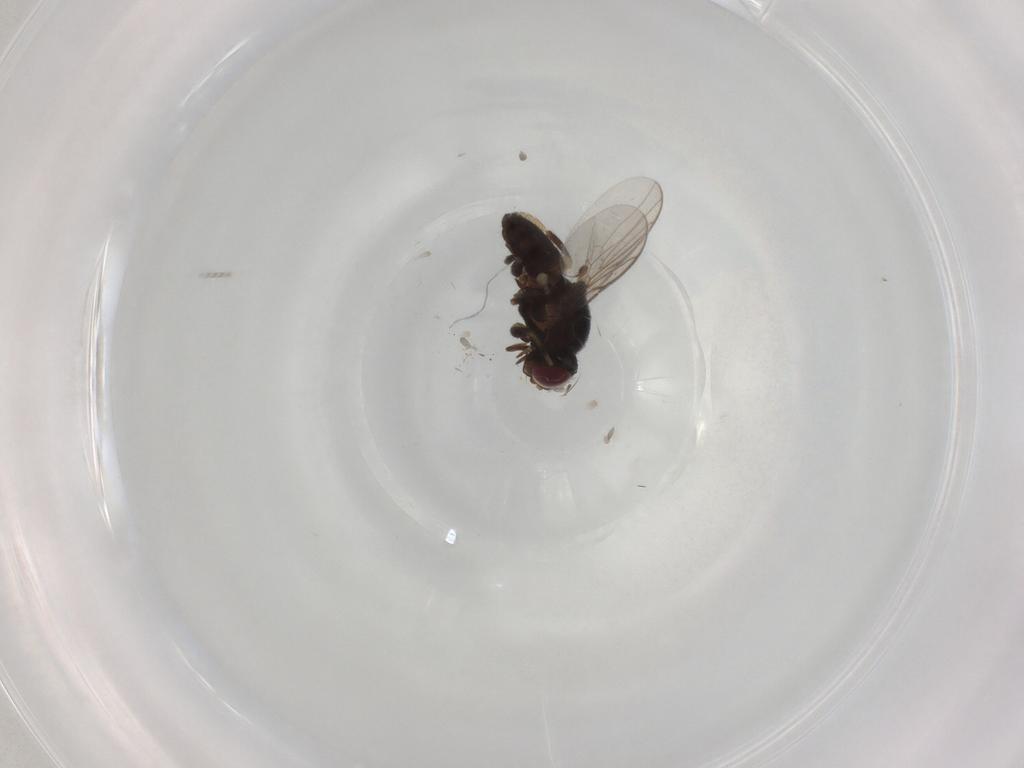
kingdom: Animalia
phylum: Arthropoda
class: Insecta
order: Diptera
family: Chloropidae
